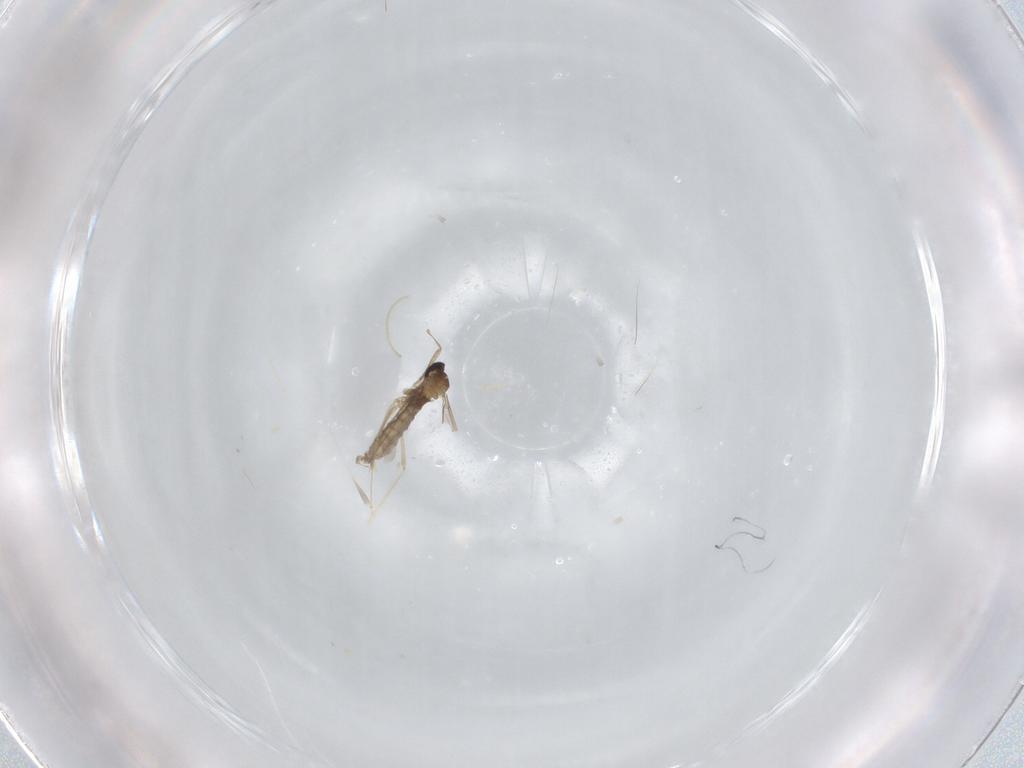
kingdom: Animalia
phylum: Arthropoda
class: Insecta
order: Diptera
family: Cecidomyiidae
